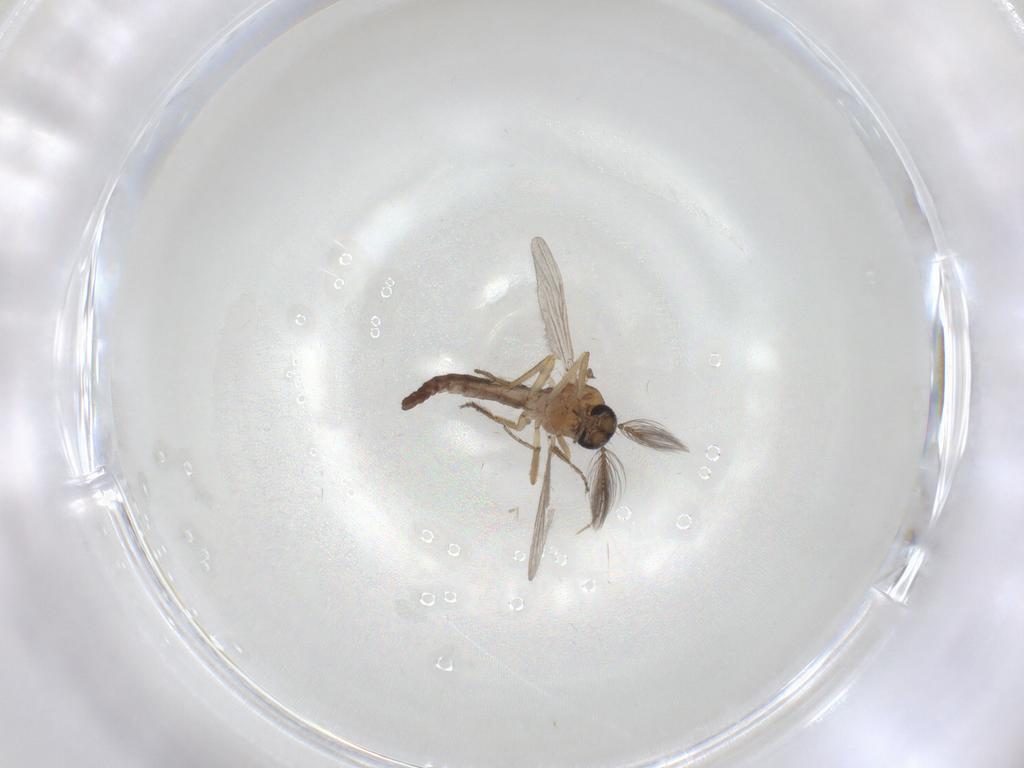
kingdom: Animalia
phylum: Arthropoda
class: Insecta
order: Diptera
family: Ceratopogonidae
